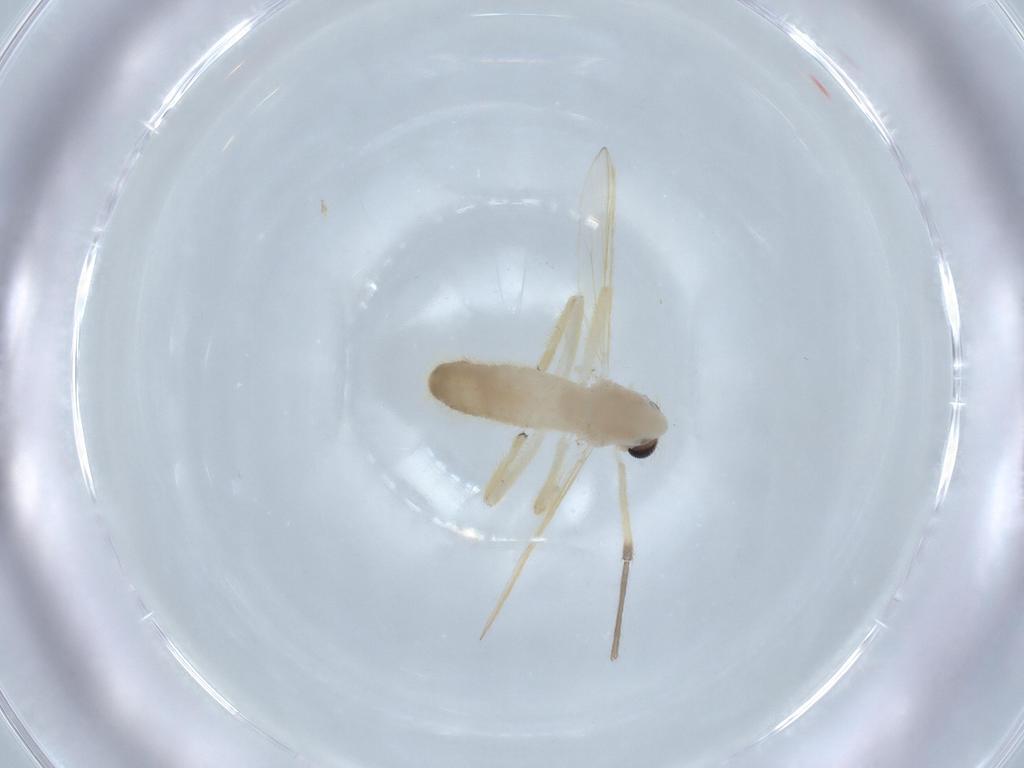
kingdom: Animalia
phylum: Arthropoda
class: Insecta
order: Diptera
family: Chironomidae
